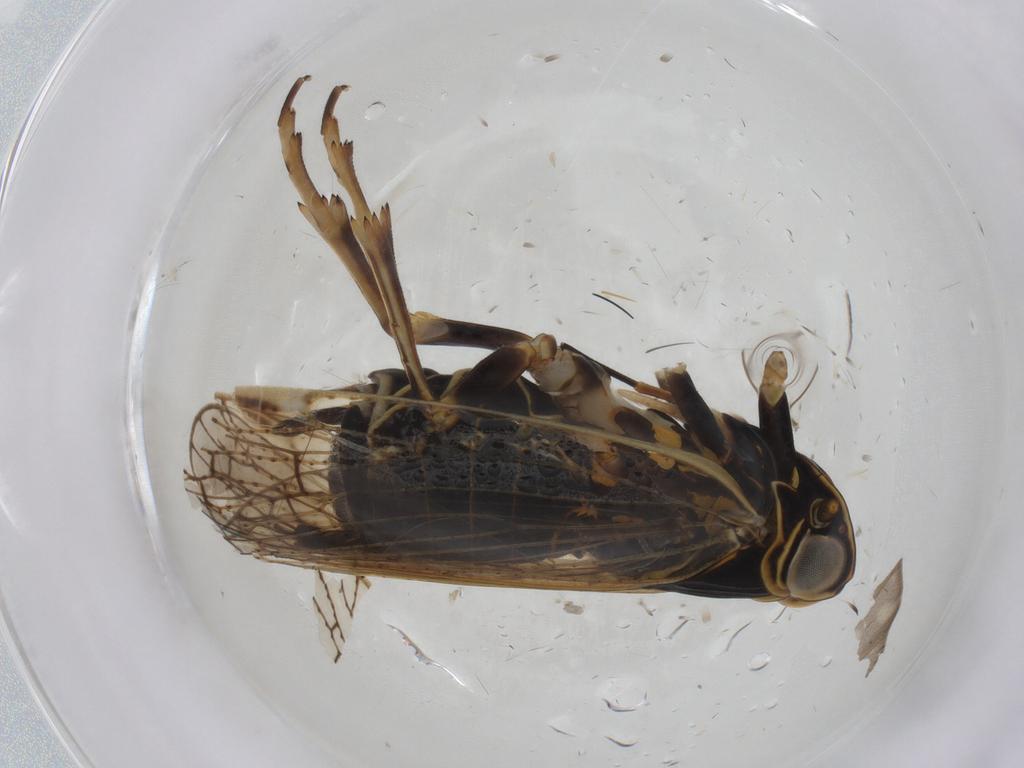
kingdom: Animalia
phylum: Arthropoda
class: Insecta
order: Hemiptera
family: Cixiidae
